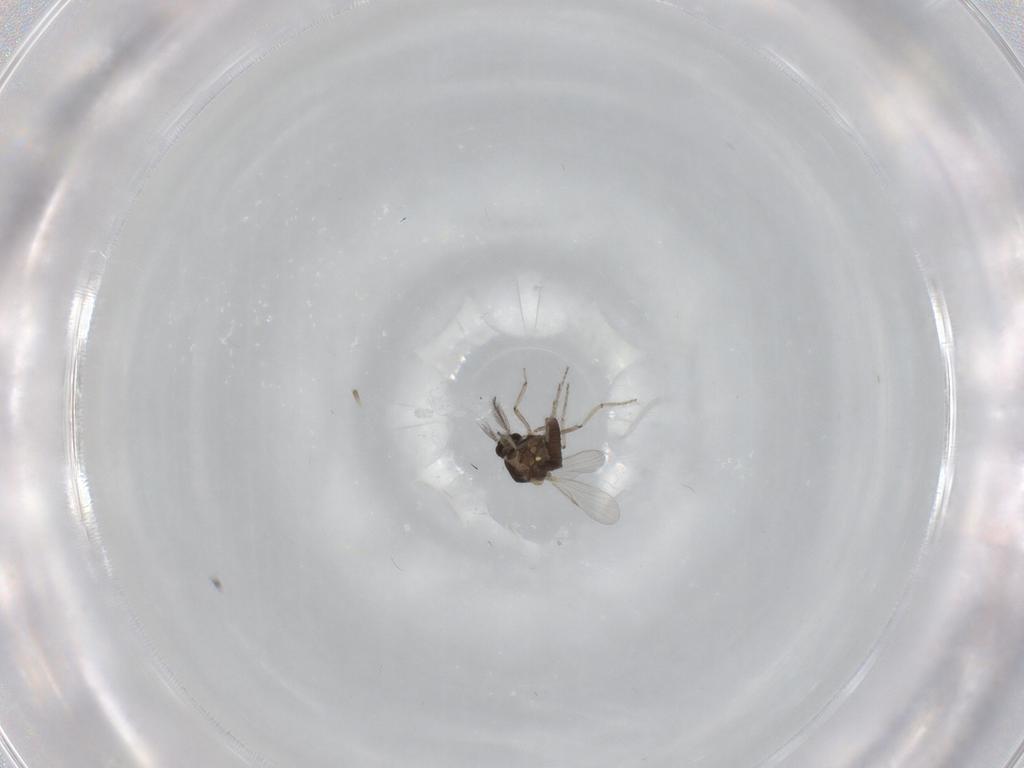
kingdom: Animalia
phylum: Arthropoda
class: Insecta
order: Diptera
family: Ceratopogonidae
